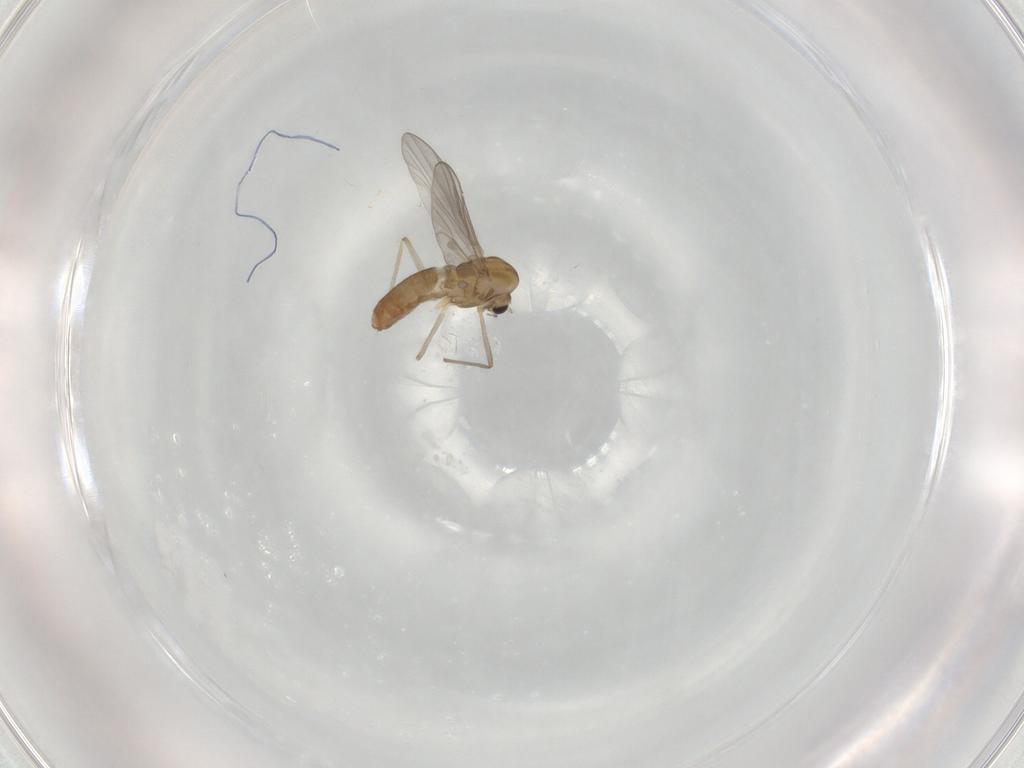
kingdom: Animalia
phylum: Arthropoda
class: Insecta
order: Diptera
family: Chironomidae
